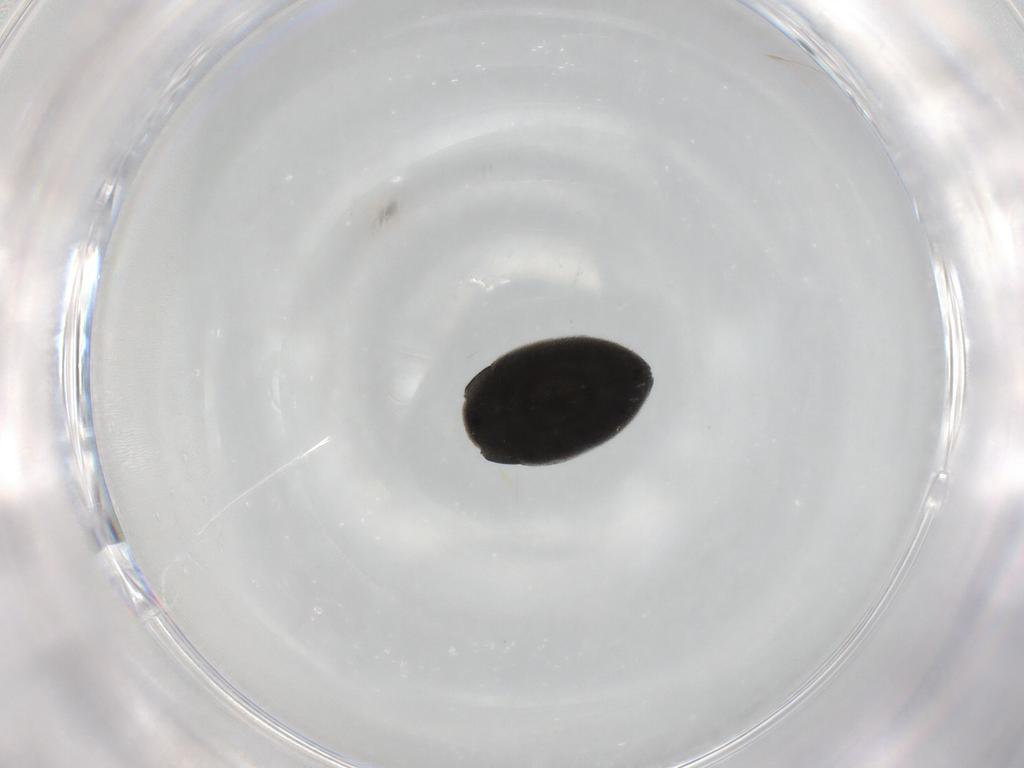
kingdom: Animalia
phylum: Arthropoda
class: Insecta
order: Coleoptera
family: Limnichidae
